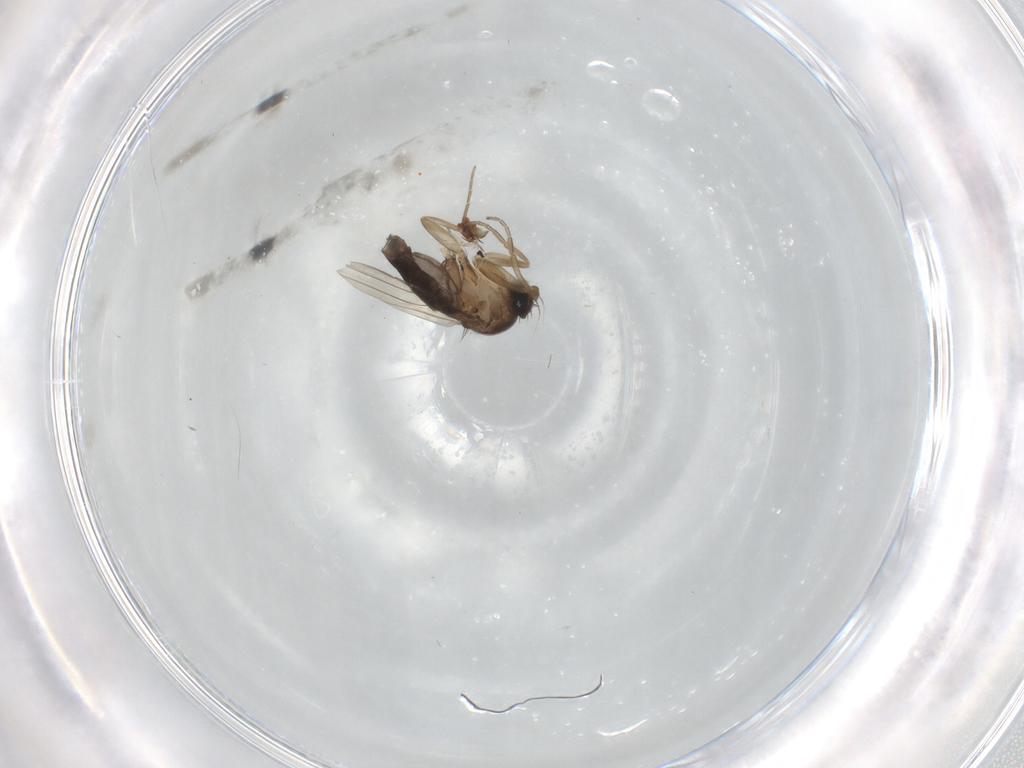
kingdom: Animalia
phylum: Arthropoda
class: Insecta
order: Diptera
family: Phoridae
